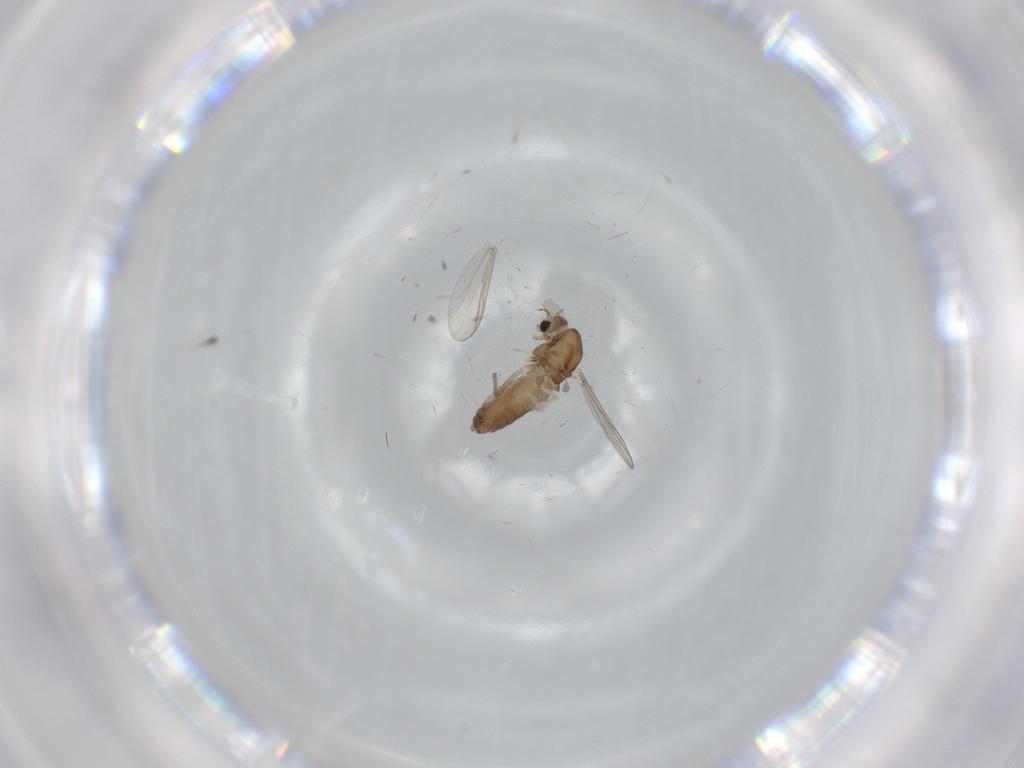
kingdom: Animalia
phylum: Arthropoda
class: Insecta
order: Diptera
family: Chironomidae
